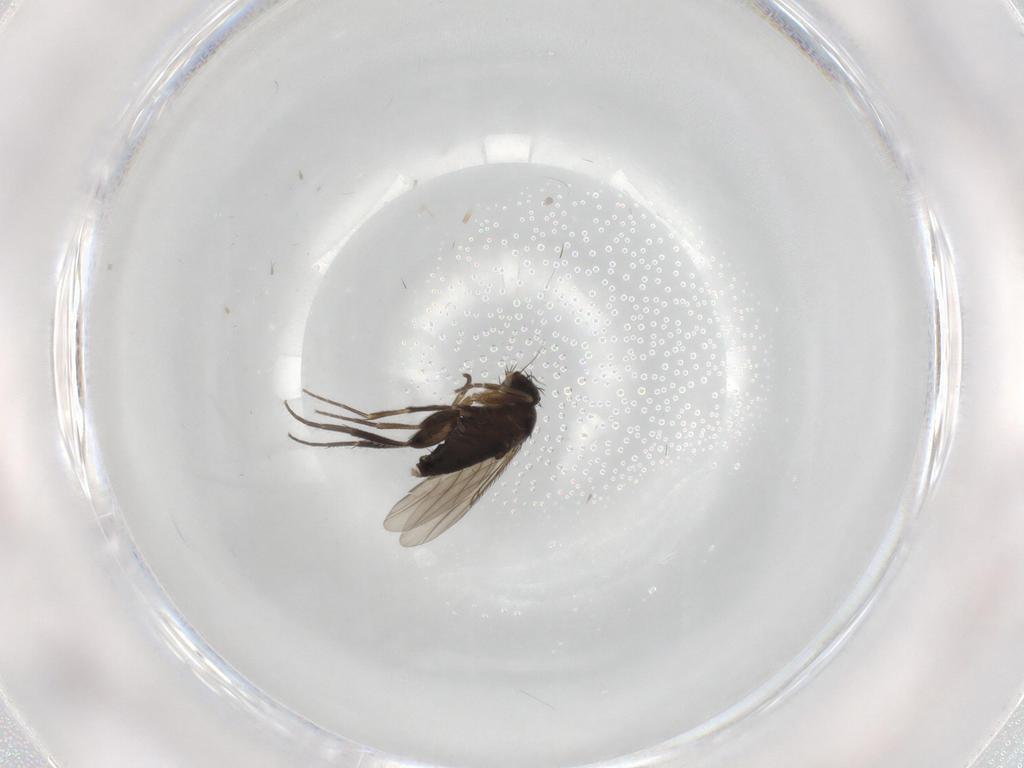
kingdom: Animalia
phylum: Arthropoda
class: Insecta
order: Diptera
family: Phoridae
